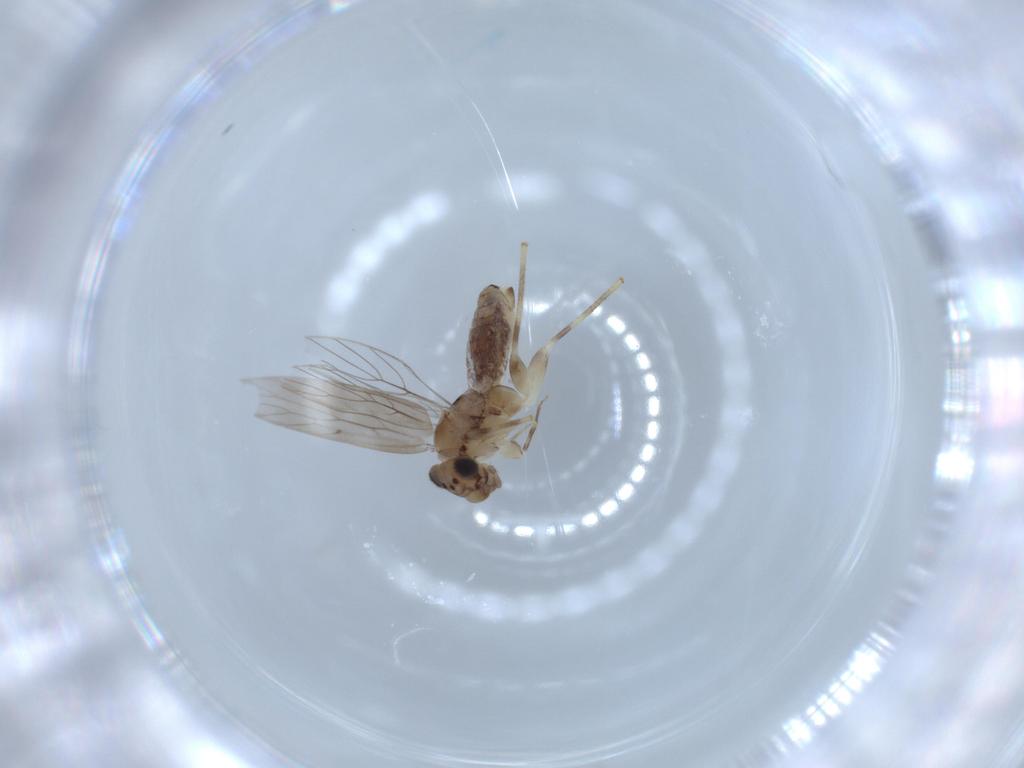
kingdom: Animalia
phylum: Arthropoda
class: Insecta
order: Psocodea
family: Lepidopsocidae
